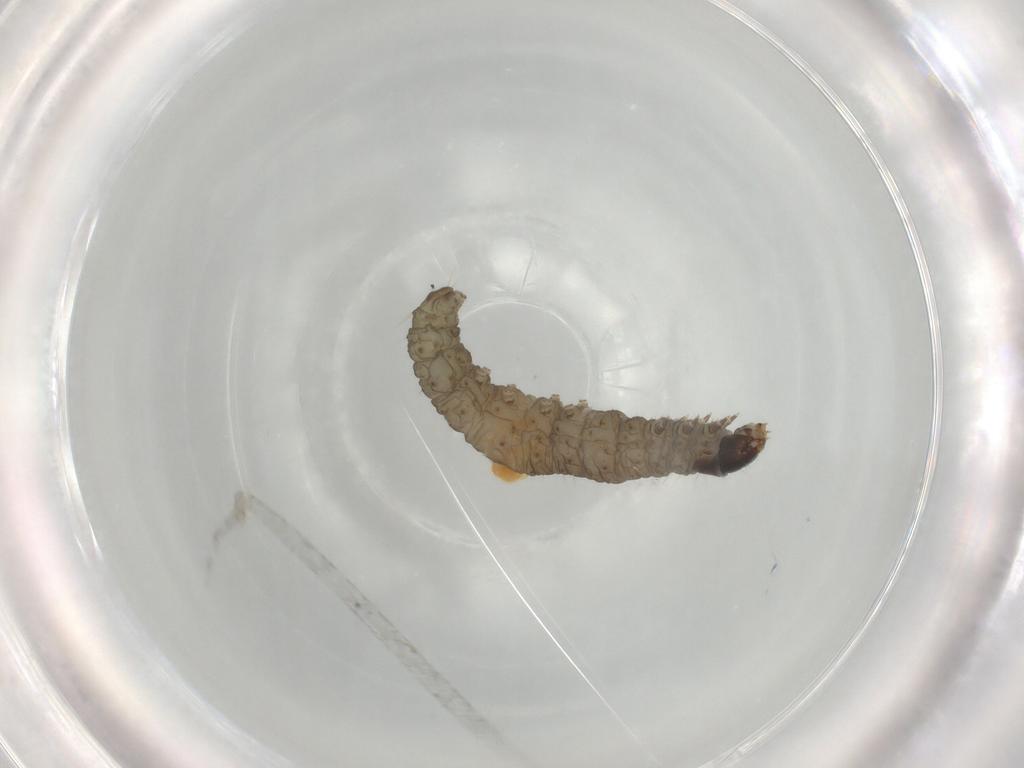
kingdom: Animalia
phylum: Arthropoda
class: Insecta
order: Lepidoptera
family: Tortricidae
